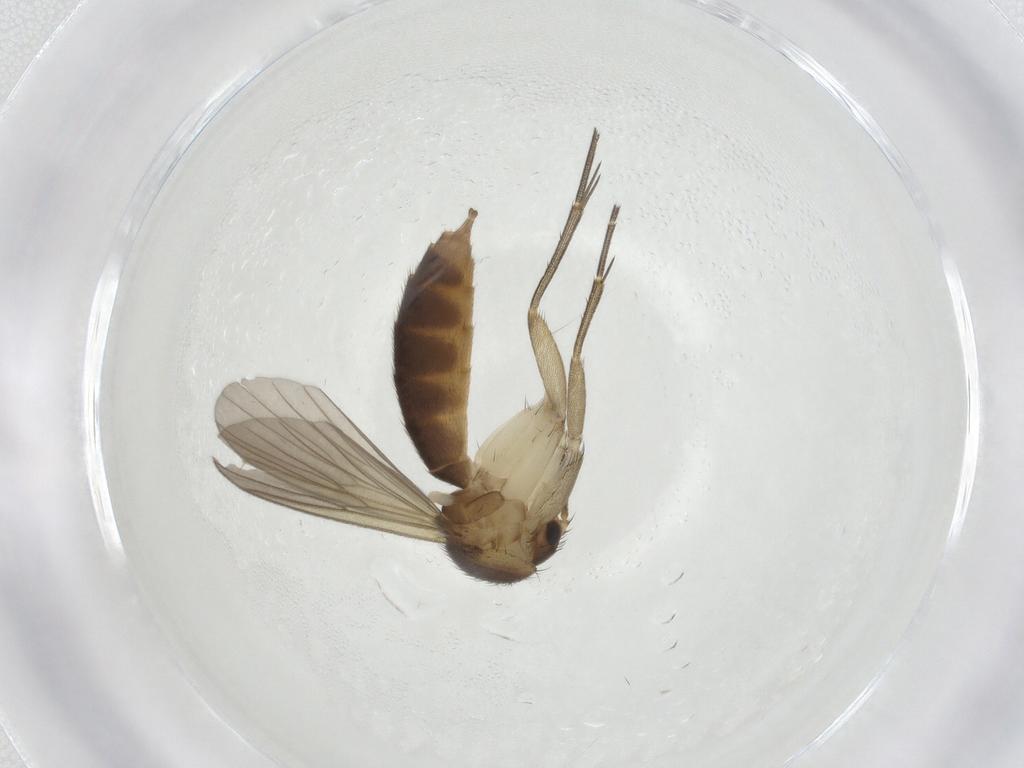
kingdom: Animalia
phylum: Arthropoda
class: Insecta
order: Diptera
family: Mycetophilidae
